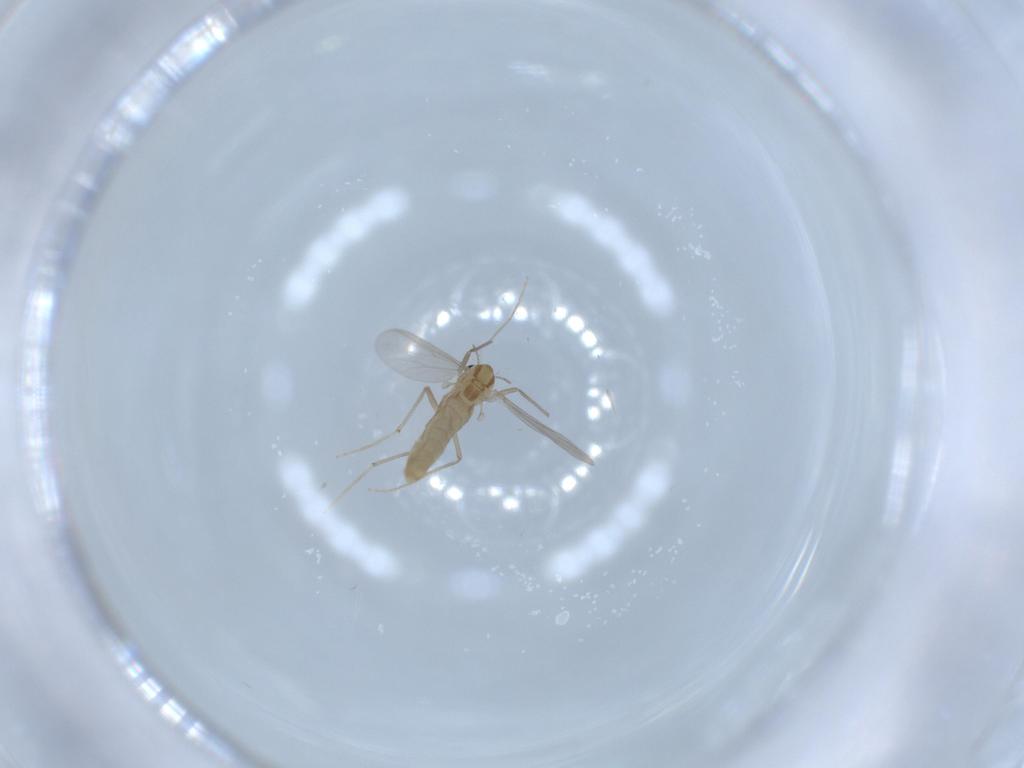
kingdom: Animalia
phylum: Arthropoda
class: Insecta
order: Diptera
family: Chironomidae
